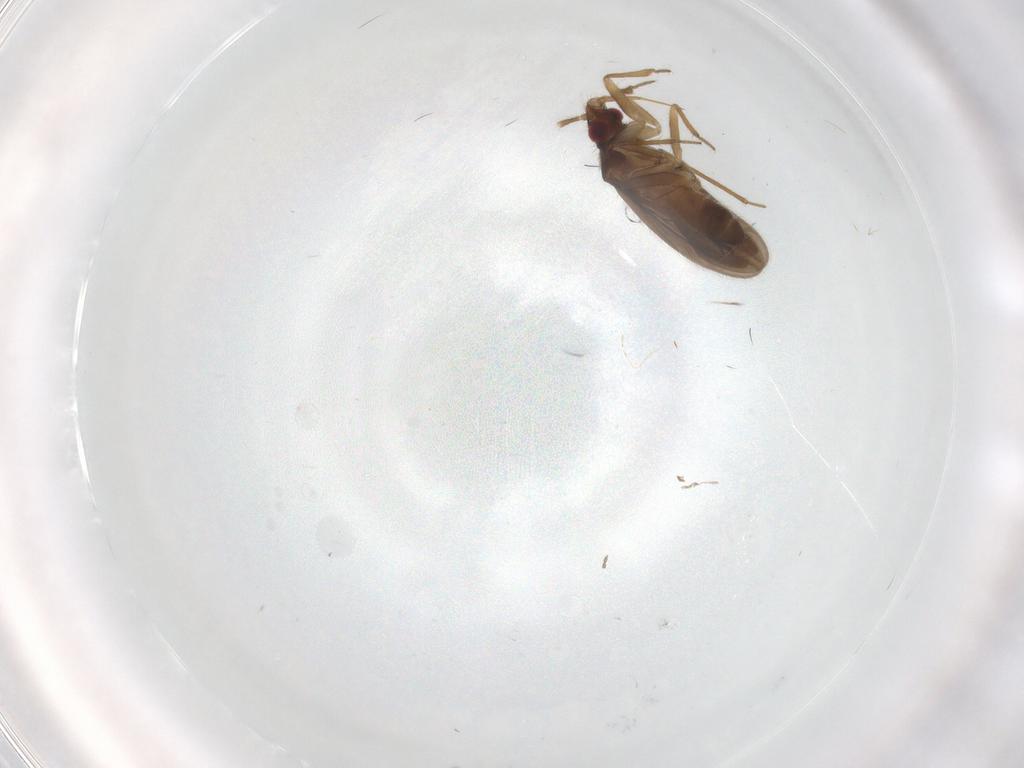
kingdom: Animalia
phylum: Arthropoda
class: Insecta
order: Hemiptera
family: Ceratocombidae
